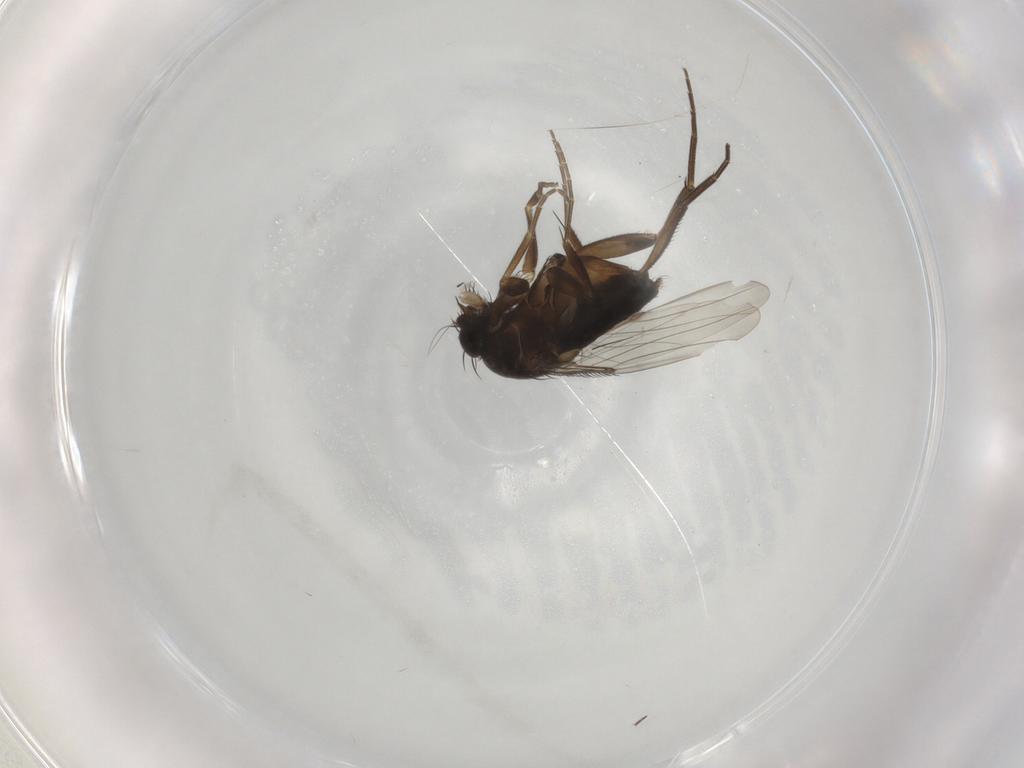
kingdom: Animalia
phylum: Arthropoda
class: Insecta
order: Diptera
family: Phoridae
